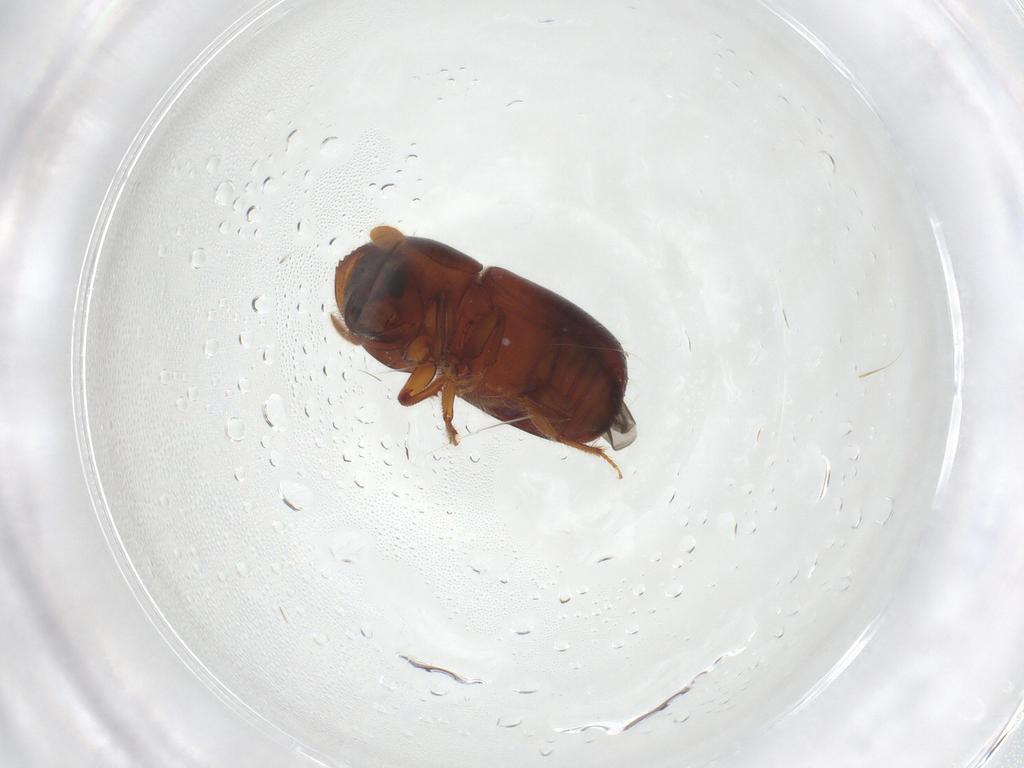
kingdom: Animalia
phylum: Arthropoda
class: Insecta
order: Coleoptera
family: Curculionidae
